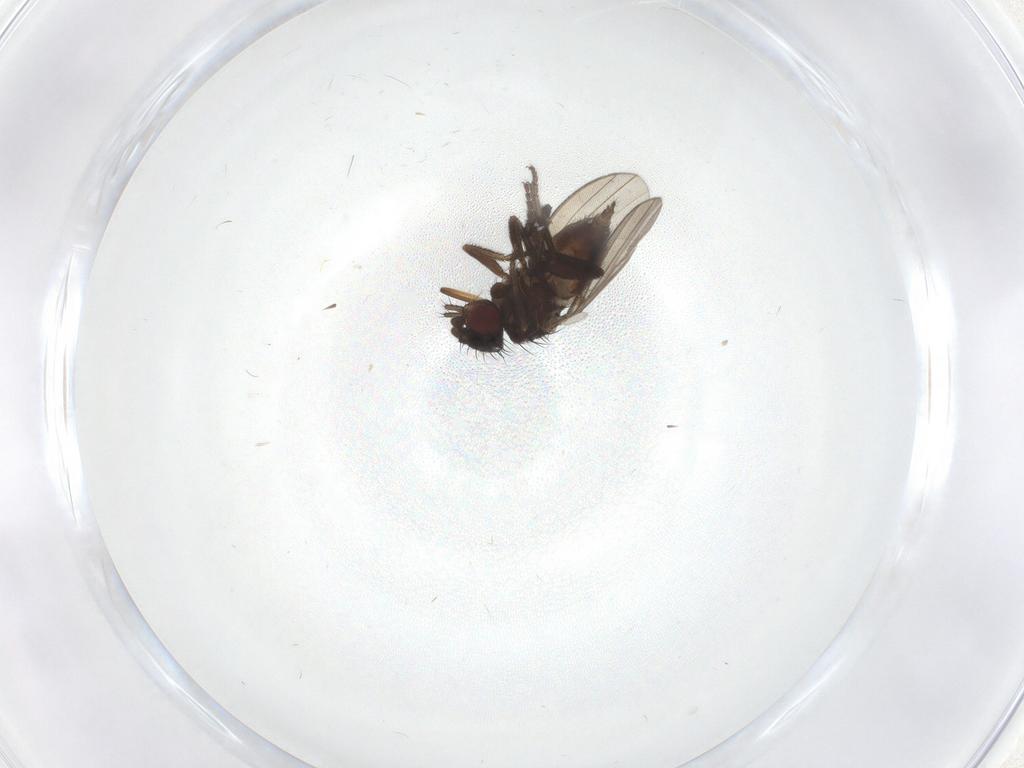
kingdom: Animalia
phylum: Arthropoda
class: Insecta
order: Diptera
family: Milichiidae
